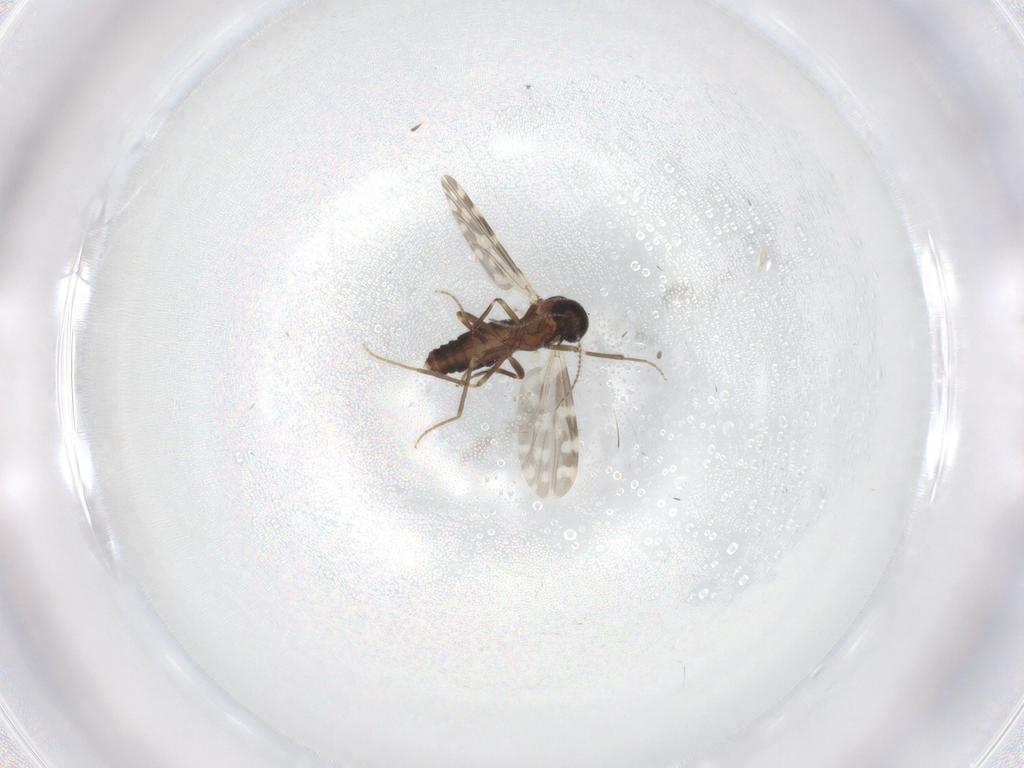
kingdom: Animalia
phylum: Arthropoda
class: Insecta
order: Diptera
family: Ceratopogonidae
